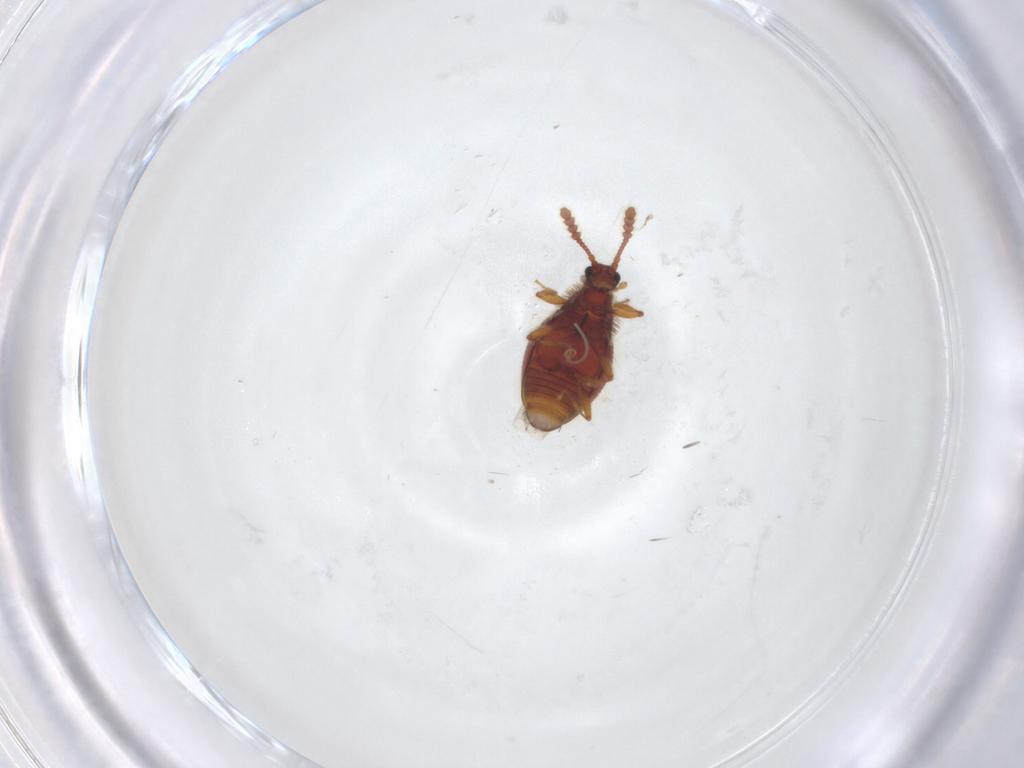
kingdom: Animalia
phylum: Arthropoda
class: Insecta
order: Coleoptera
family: Staphylinidae
